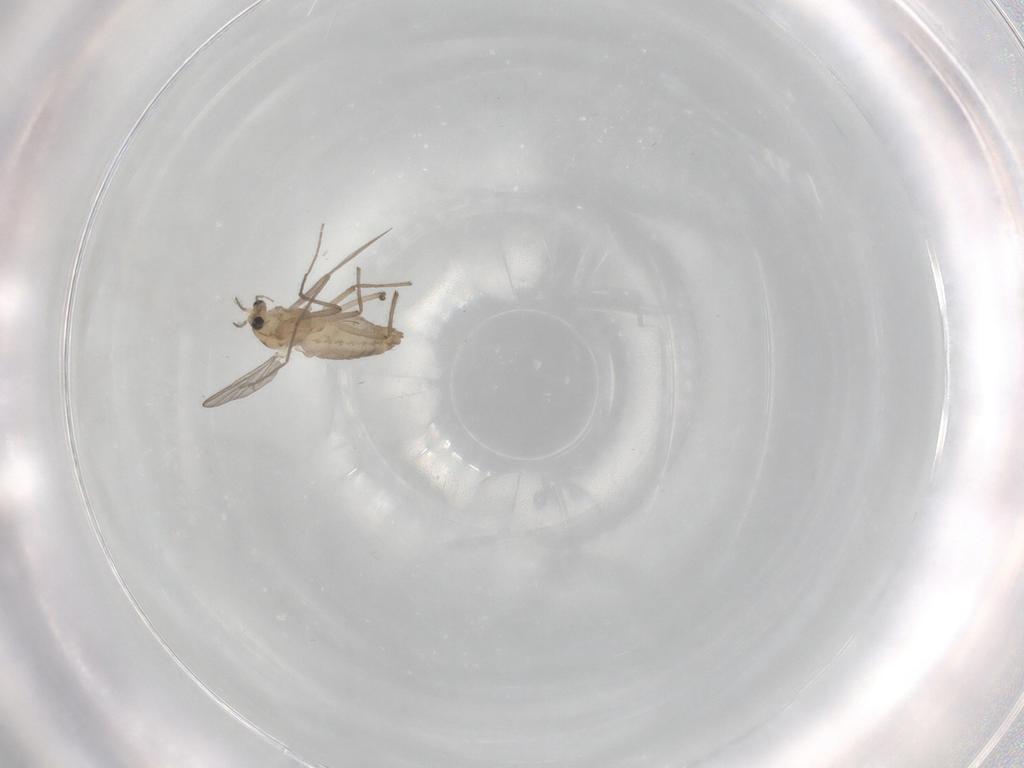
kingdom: Animalia
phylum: Arthropoda
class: Insecta
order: Diptera
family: Chironomidae
